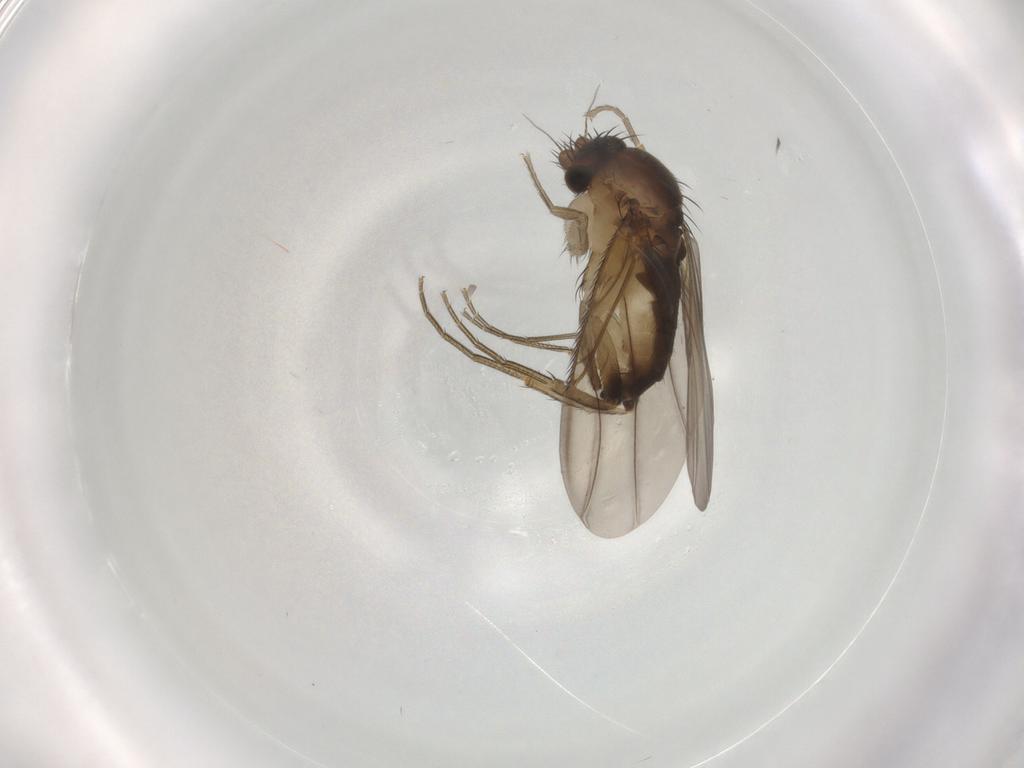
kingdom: Animalia
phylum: Arthropoda
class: Insecta
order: Diptera
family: Phoridae
